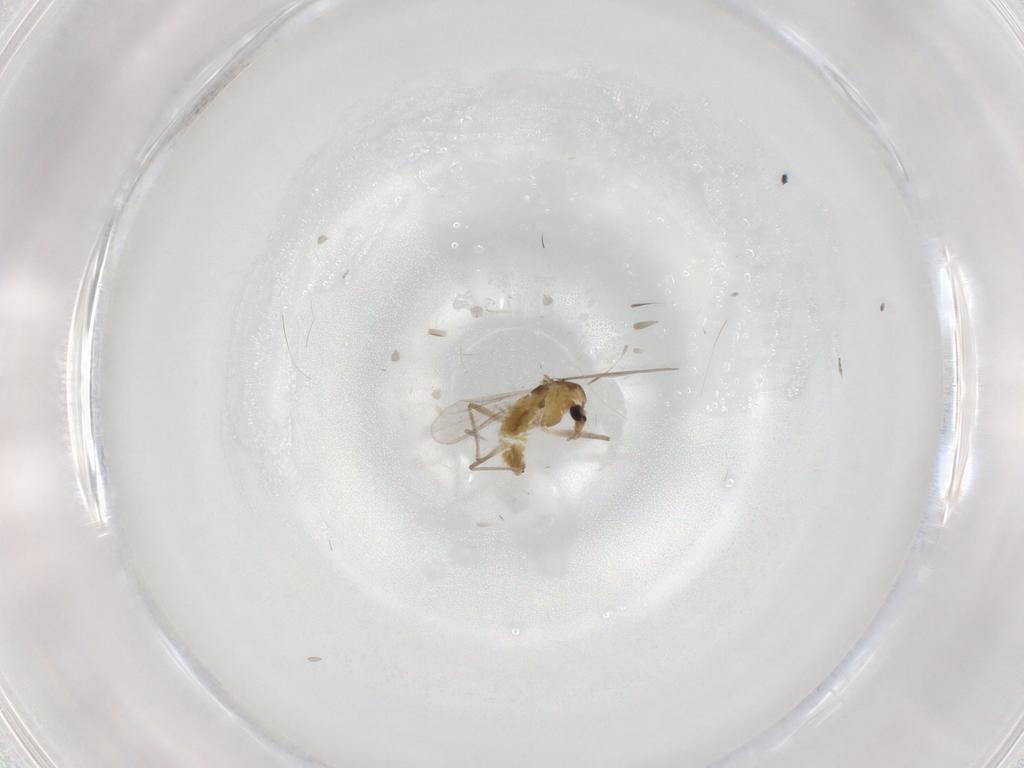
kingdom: Animalia
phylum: Arthropoda
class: Insecta
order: Diptera
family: Chironomidae
